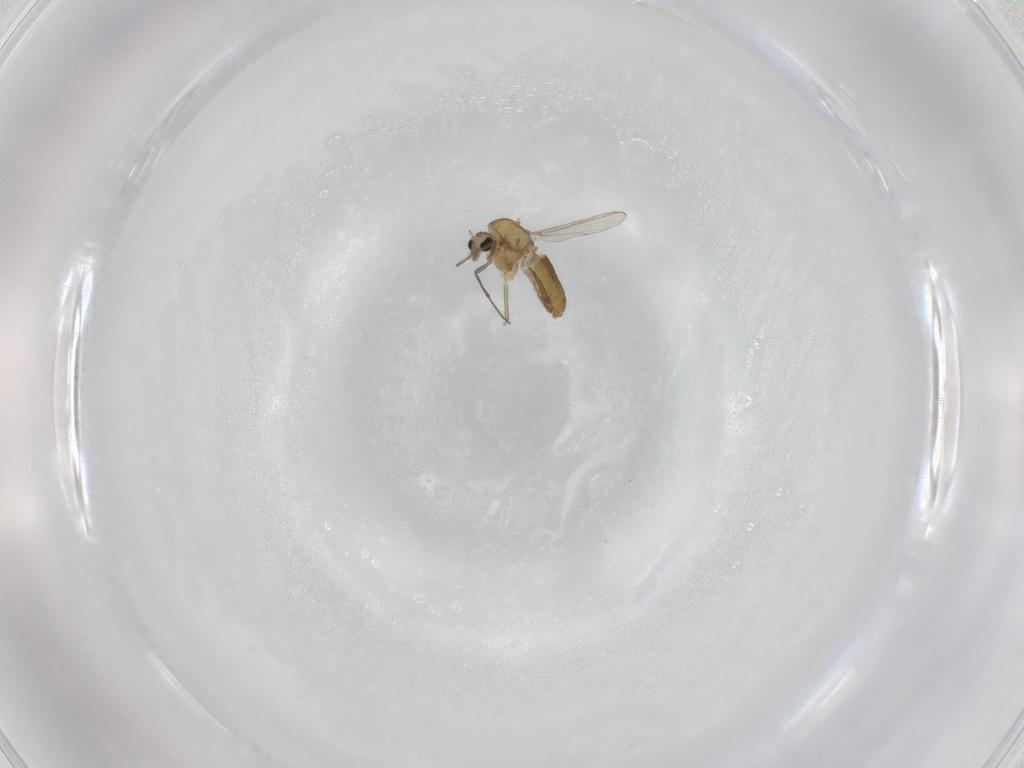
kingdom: Animalia
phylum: Arthropoda
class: Insecta
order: Diptera
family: Chironomidae
